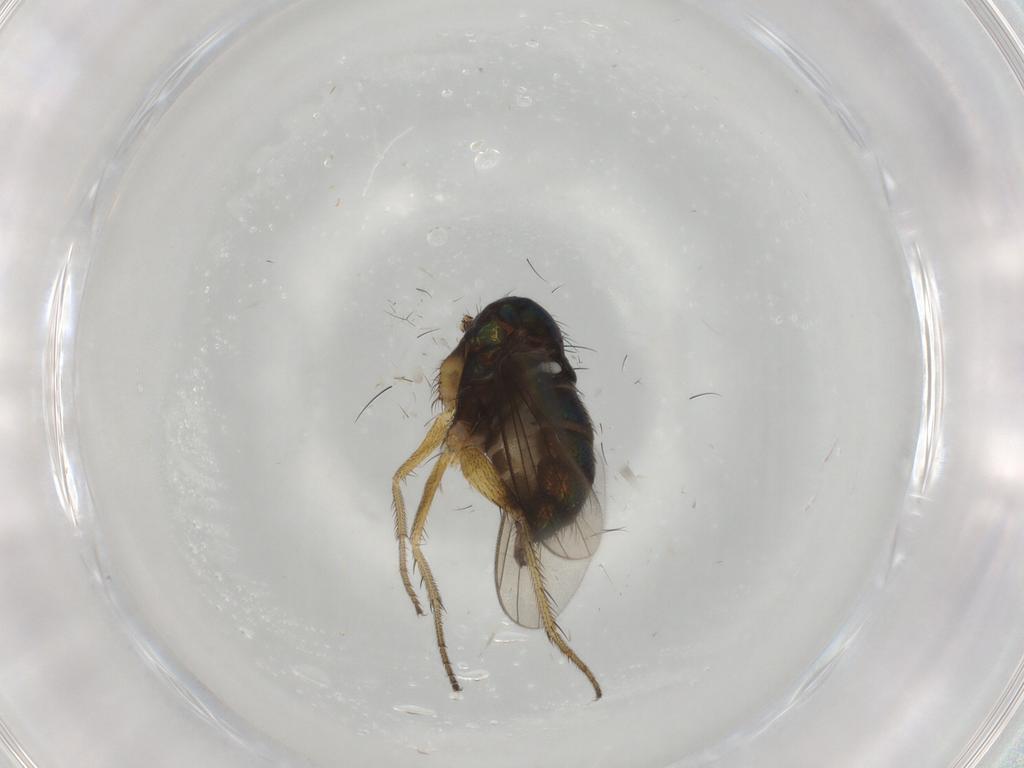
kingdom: Animalia
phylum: Arthropoda
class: Insecta
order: Diptera
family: Dolichopodidae
